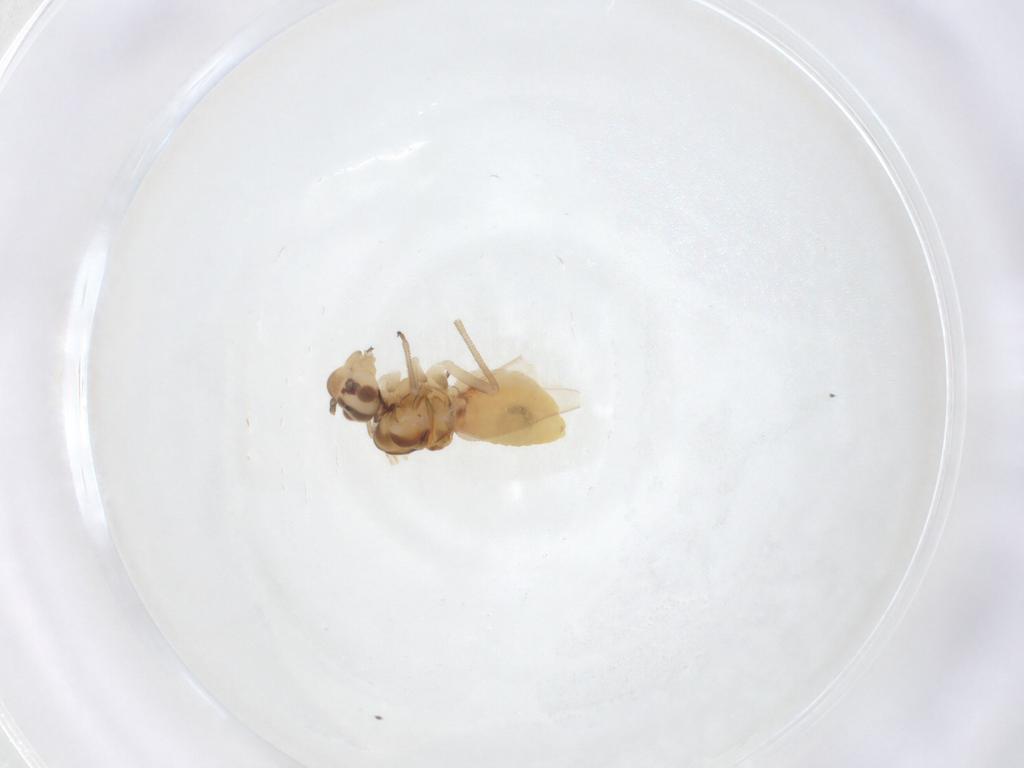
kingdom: Animalia
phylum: Arthropoda
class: Insecta
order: Psocodea
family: Caeciliusidae
